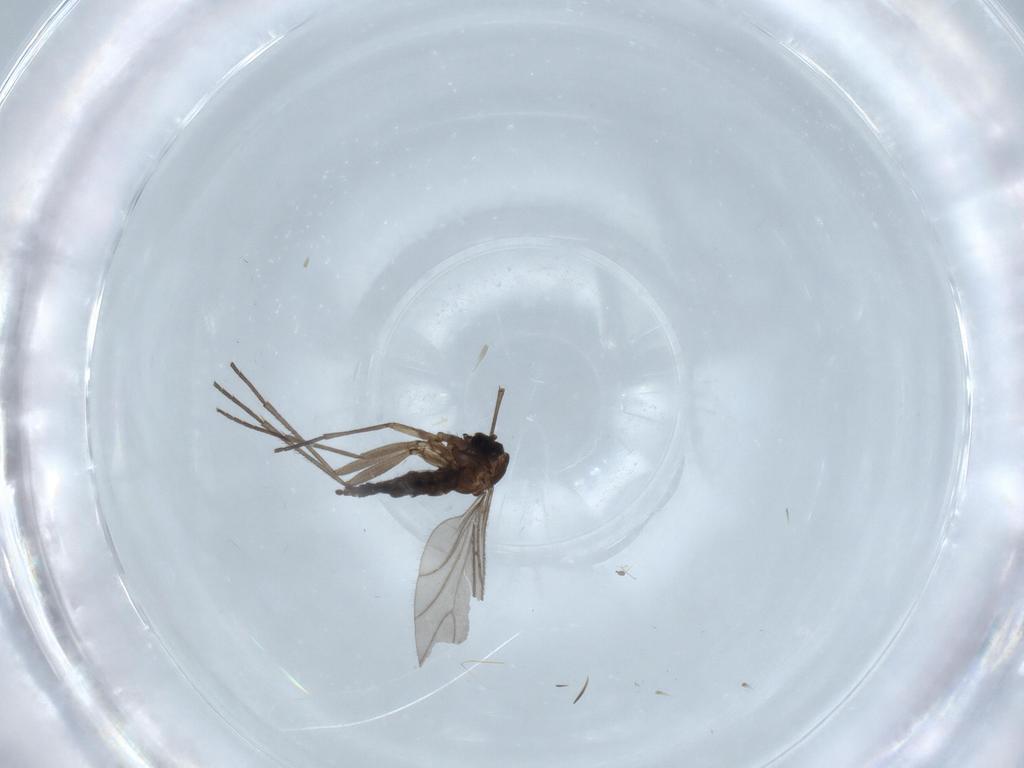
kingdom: Animalia
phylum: Arthropoda
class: Insecta
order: Diptera
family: Sciaridae
